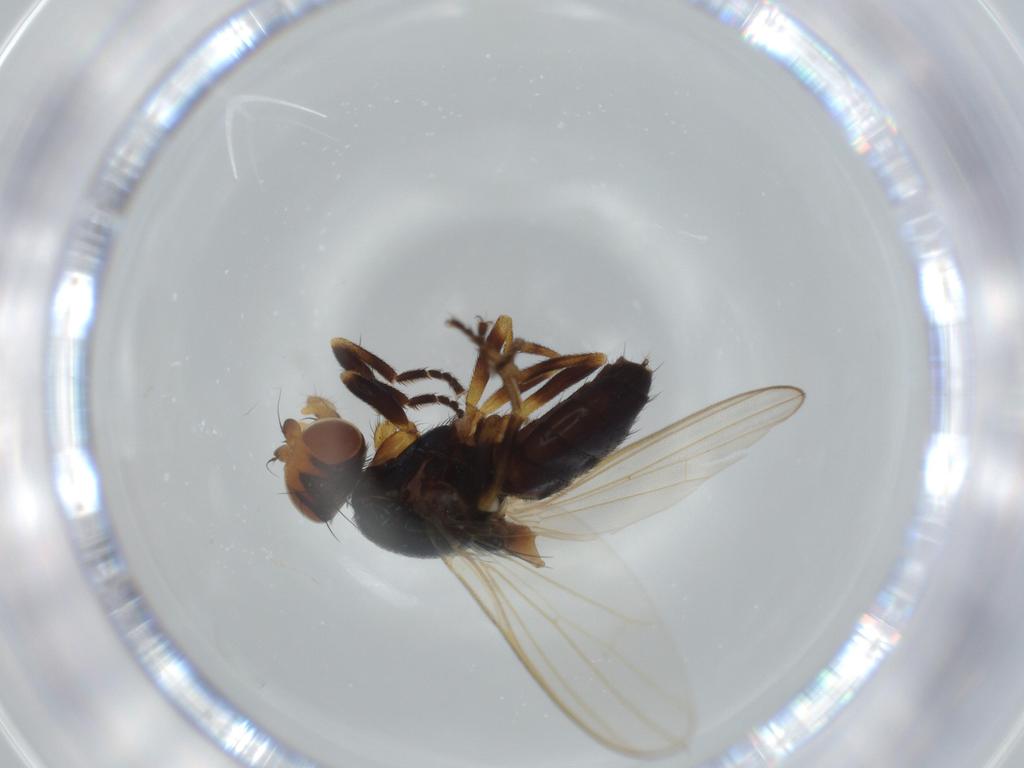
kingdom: Animalia
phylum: Arthropoda
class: Insecta
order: Diptera
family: Piophilidae
